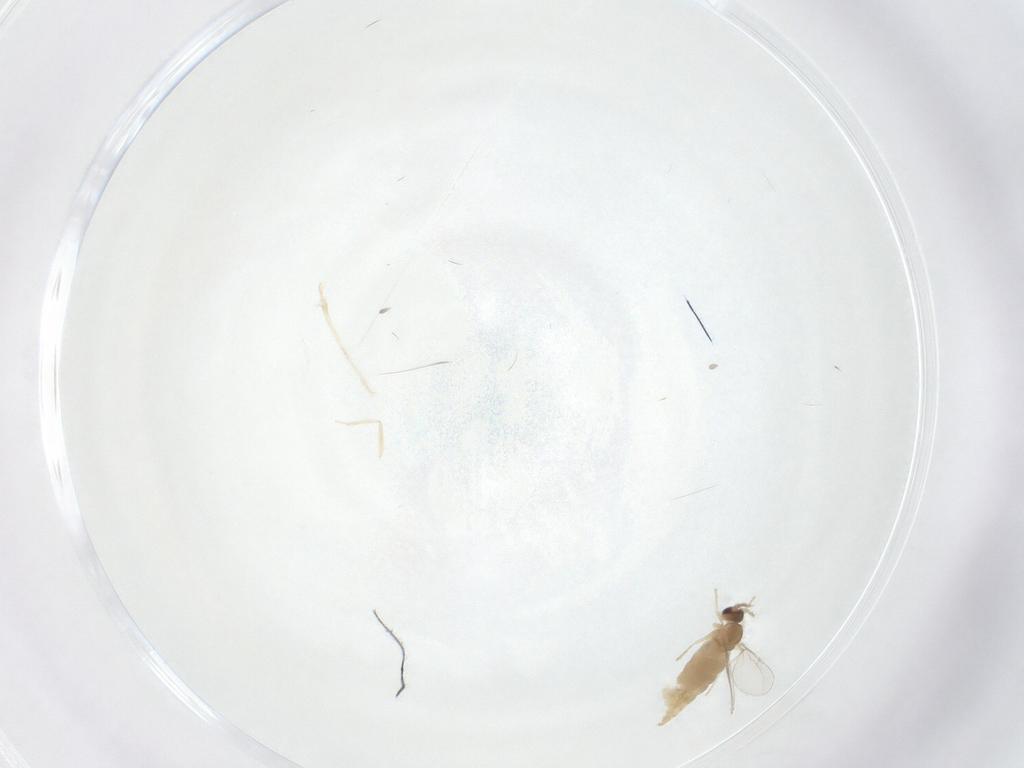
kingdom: Animalia
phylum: Arthropoda
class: Insecta
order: Diptera
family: Cecidomyiidae
